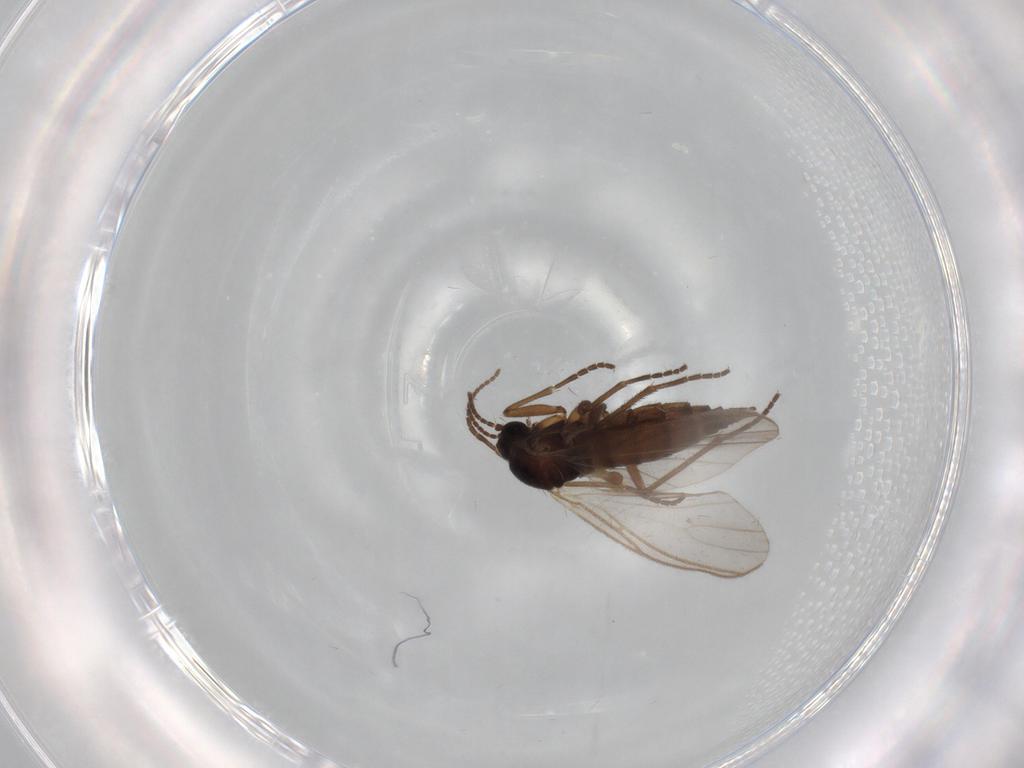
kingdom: Animalia
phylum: Arthropoda
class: Insecta
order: Diptera
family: Sciaridae
